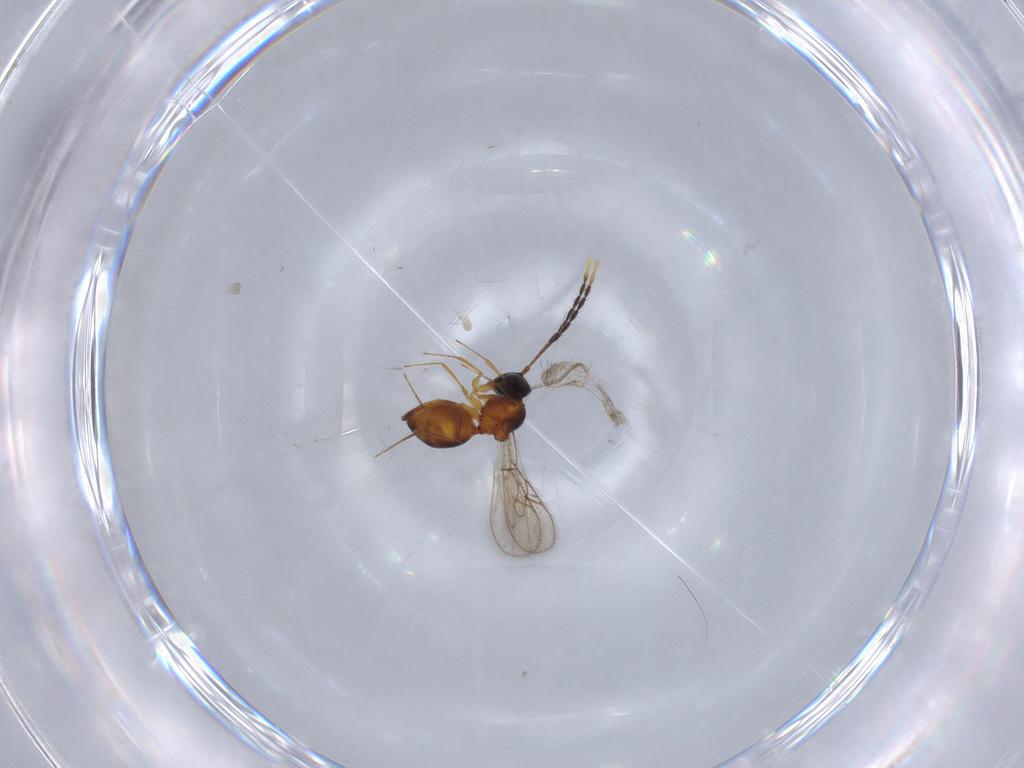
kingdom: Animalia
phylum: Arthropoda
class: Insecta
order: Hymenoptera
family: Figitidae
